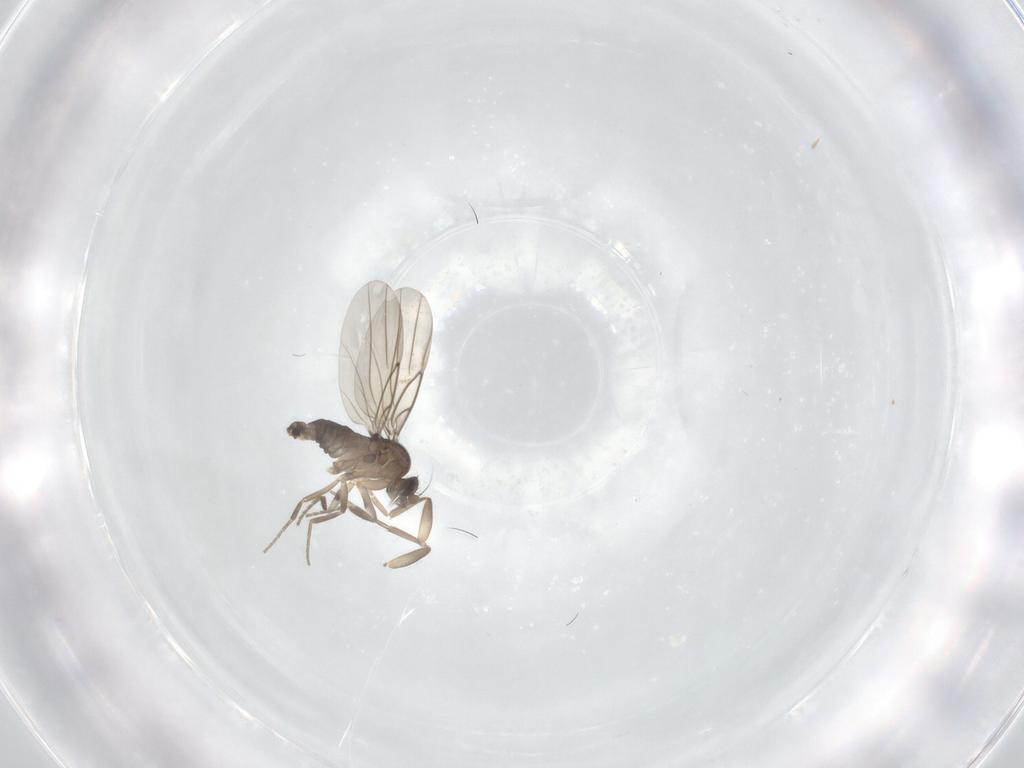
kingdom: Animalia
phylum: Arthropoda
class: Insecta
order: Diptera
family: Phoridae
